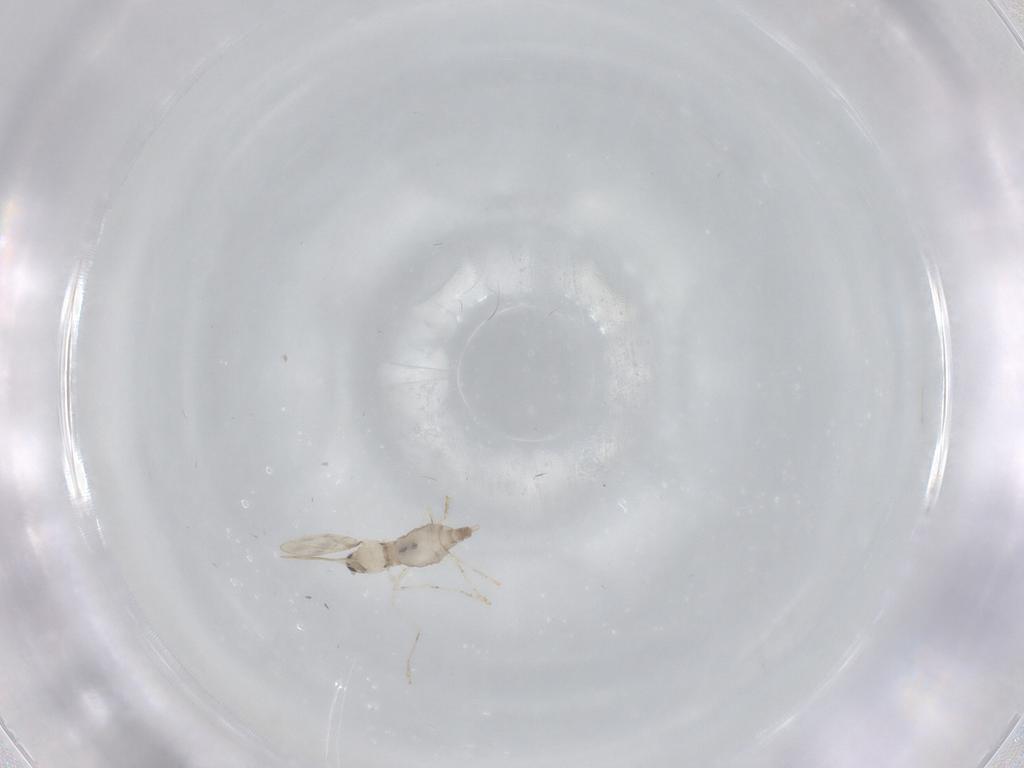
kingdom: Animalia
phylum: Arthropoda
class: Insecta
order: Diptera
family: Cecidomyiidae
